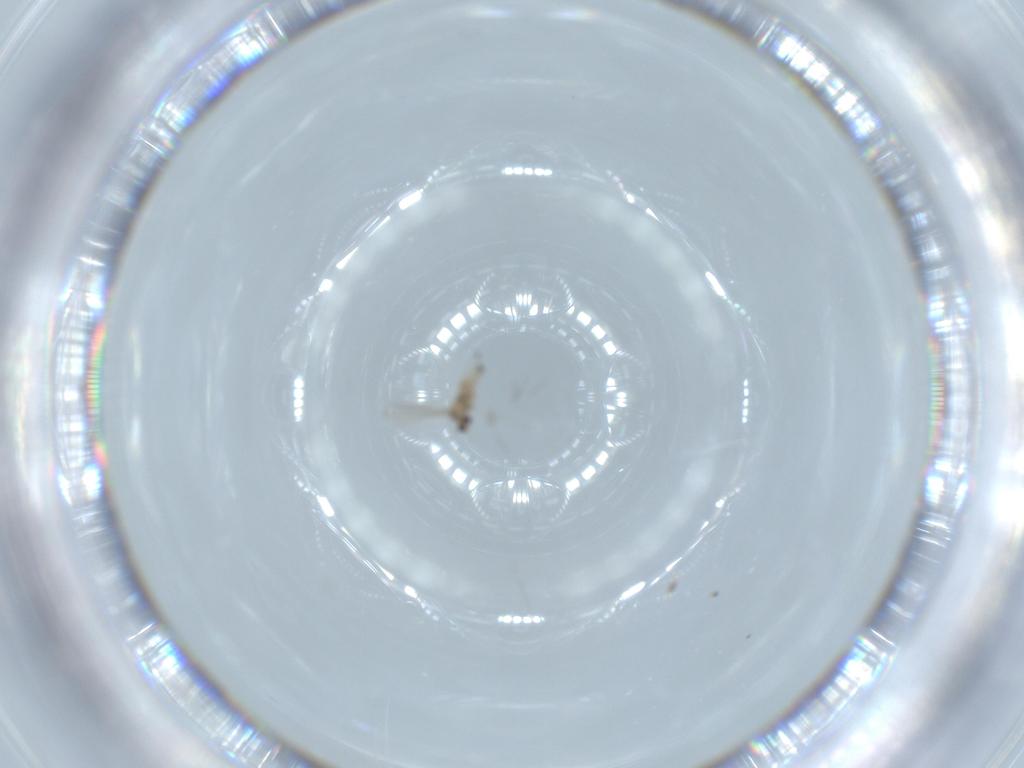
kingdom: Animalia
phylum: Arthropoda
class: Insecta
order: Diptera
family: Cecidomyiidae
